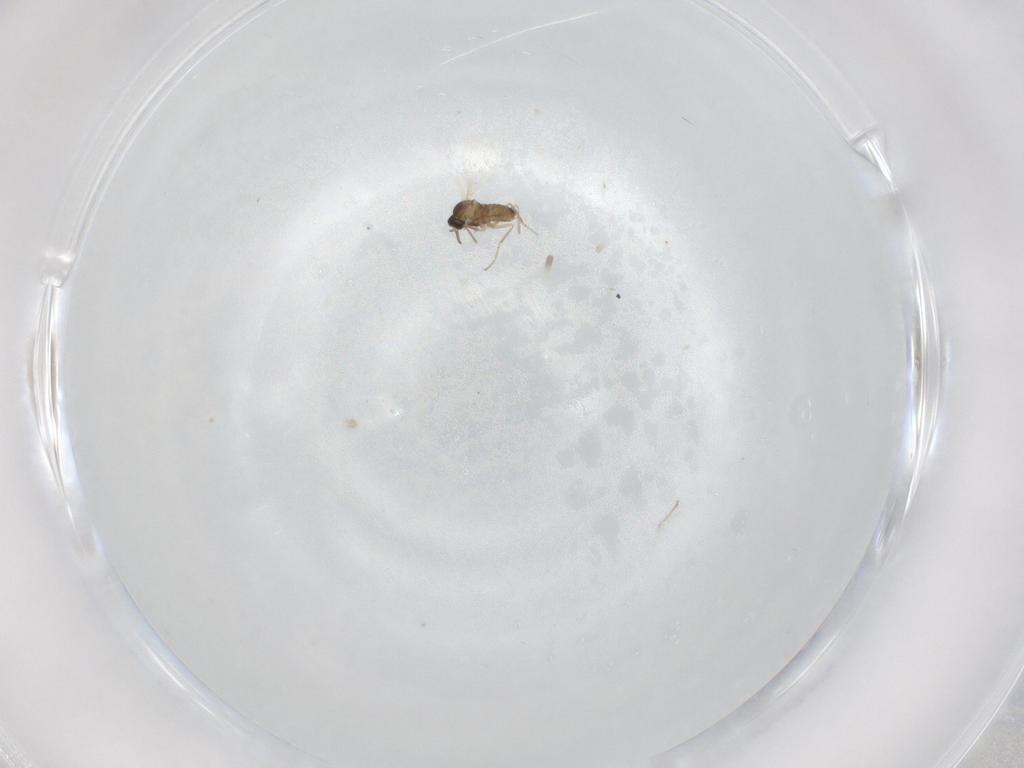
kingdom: Animalia
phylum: Arthropoda
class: Insecta
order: Diptera
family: Cecidomyiidae
